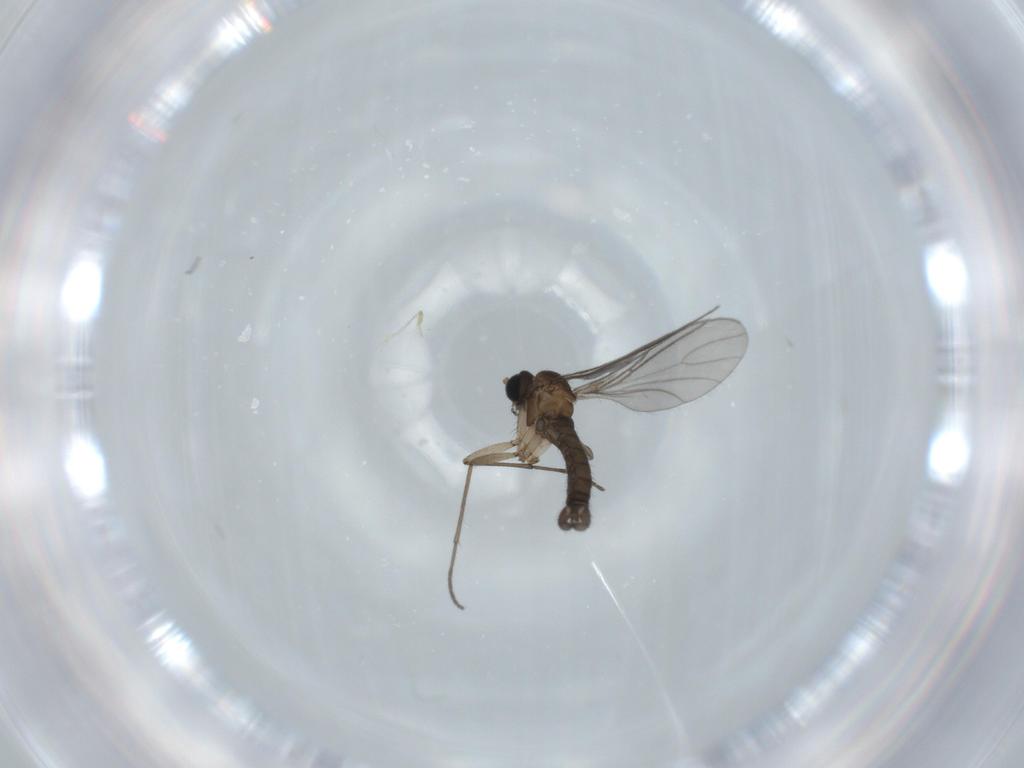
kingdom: Animalia
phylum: Arthropoda
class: Insecta
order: Diptera
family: Sciaridae
